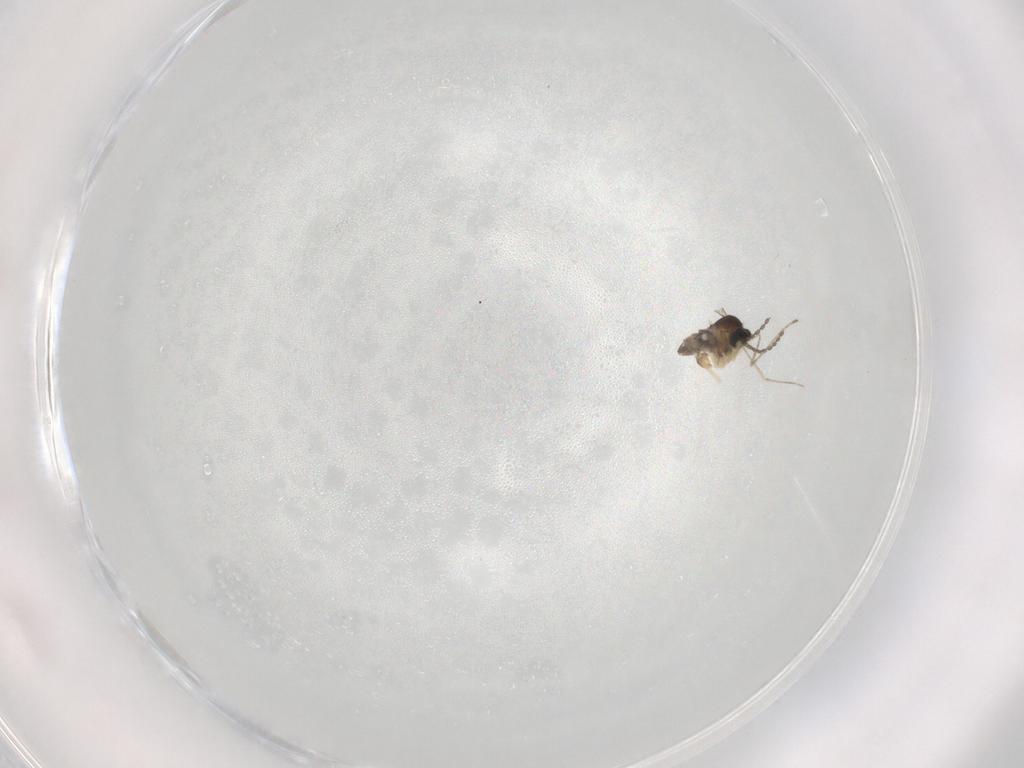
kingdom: Animalia
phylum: Arthropoda
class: Insecta
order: Diptera
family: Cecidomyiidae
